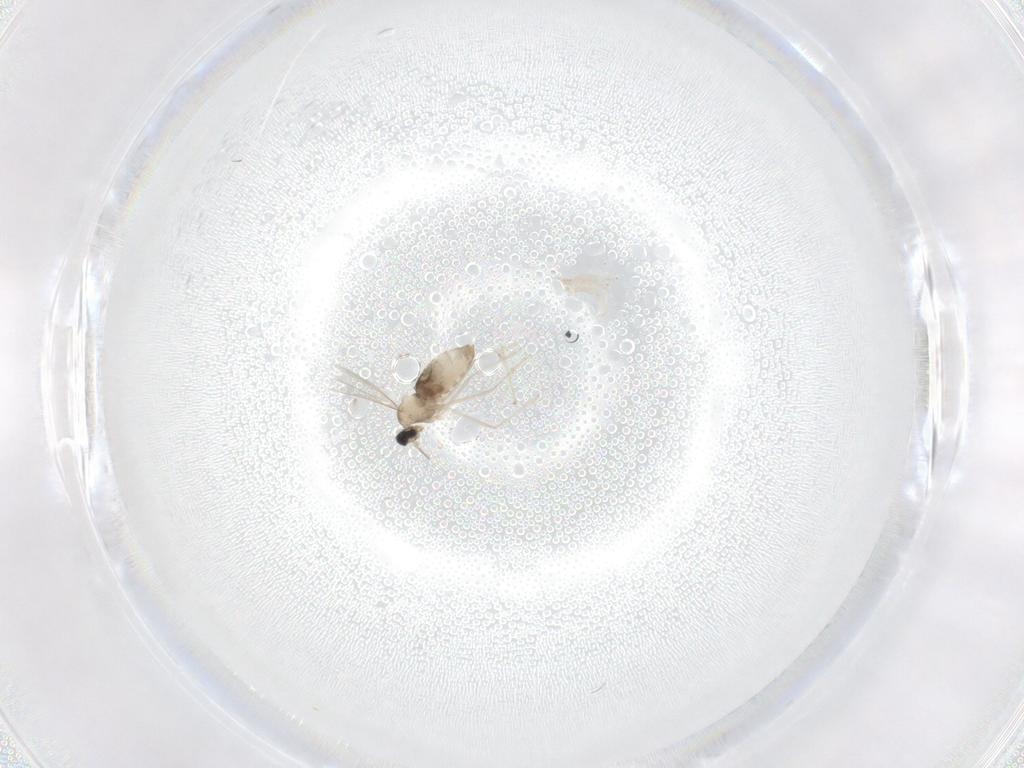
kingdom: Animalia
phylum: Arthropoda
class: Insecta
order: Diptera
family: Cecidomyiidae
